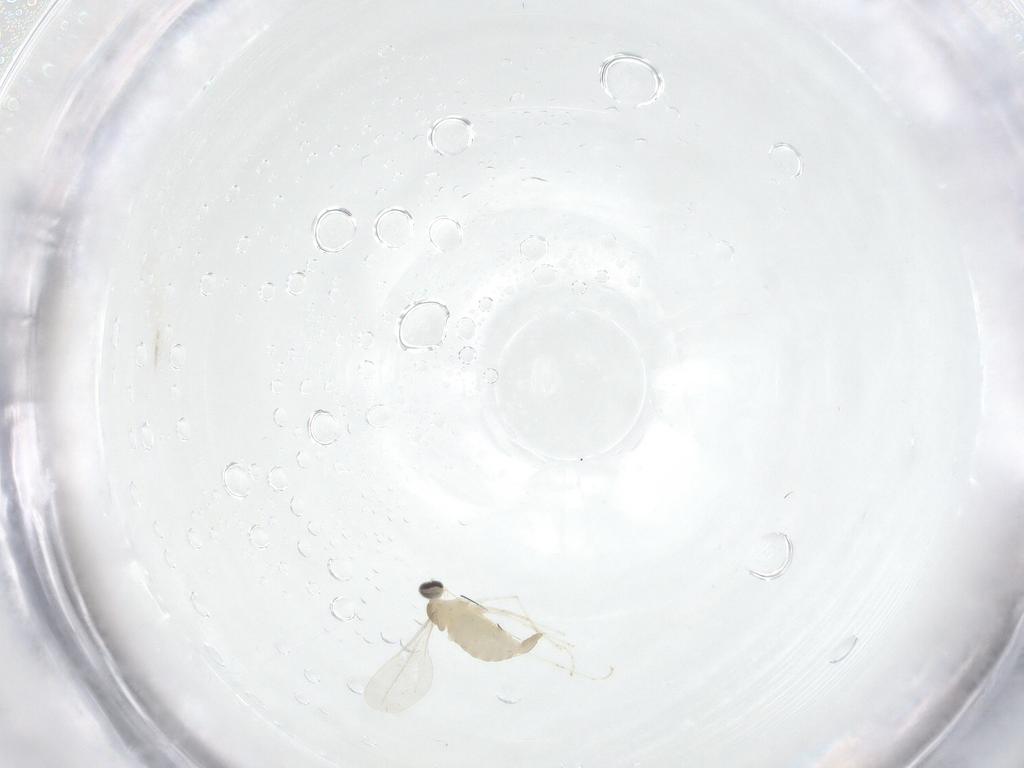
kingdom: Animalia
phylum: Arthropoda
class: Insecta
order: Diptera
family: Cecidomyiidae
